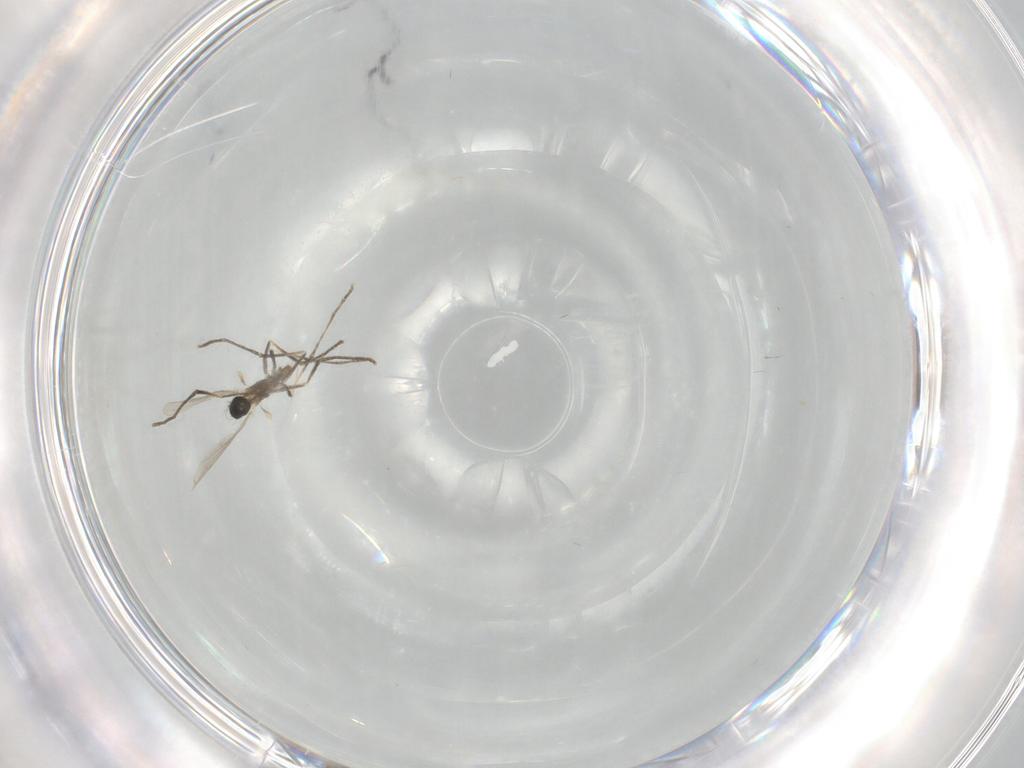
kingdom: Animalia
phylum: Arthropoda
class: Insecta
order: Diptera
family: Cecidomyiidae
